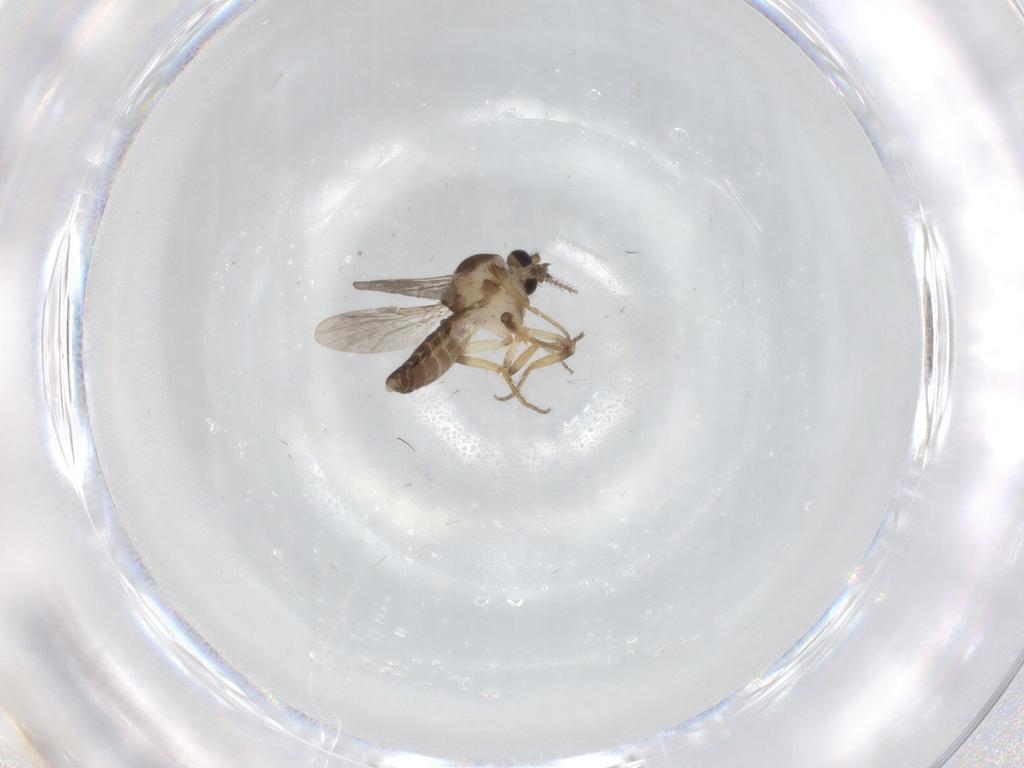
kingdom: Animalia
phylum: Arthropoda
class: Insecta
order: Diptera
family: Ceratopogonidae
